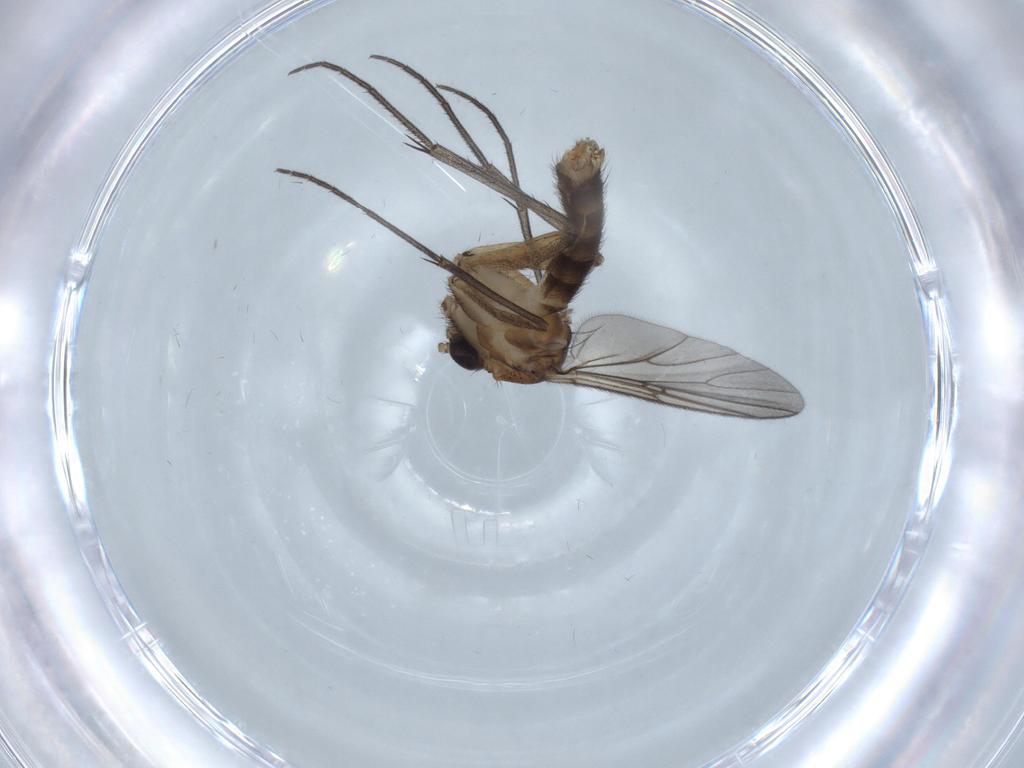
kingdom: Animalia
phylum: Arthropoda
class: Insecta
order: Diptera
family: Mycetophilidae
